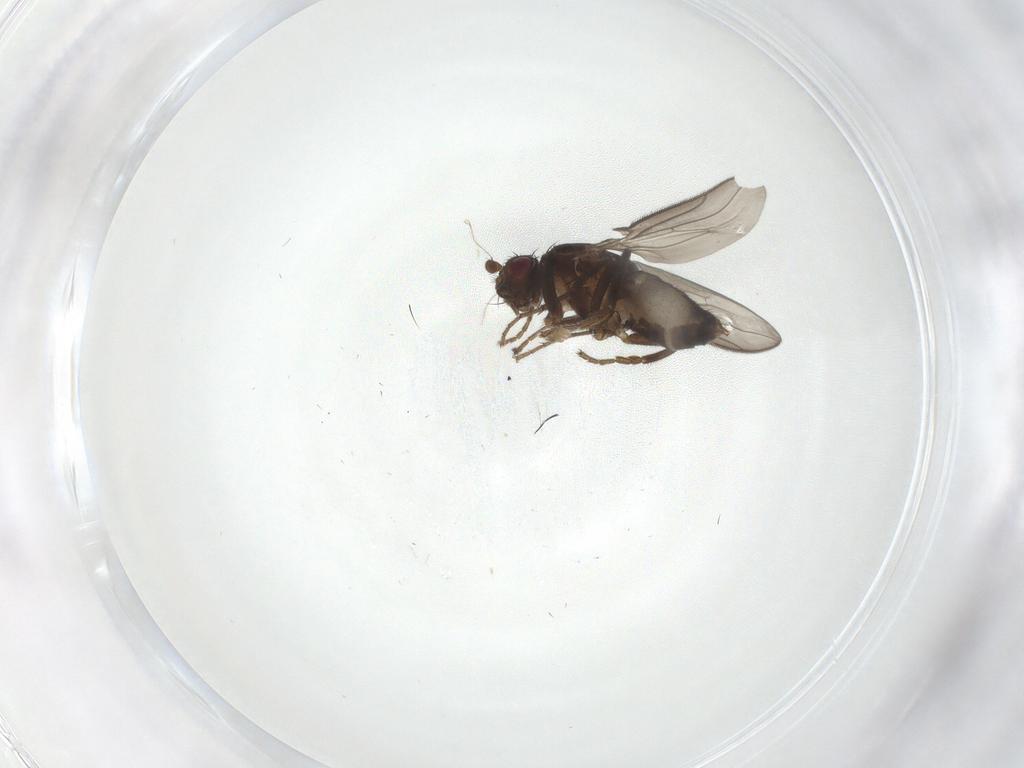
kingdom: Animalia
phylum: Arthropoda
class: Insecta
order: Diptera
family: Sphaeroceridae
